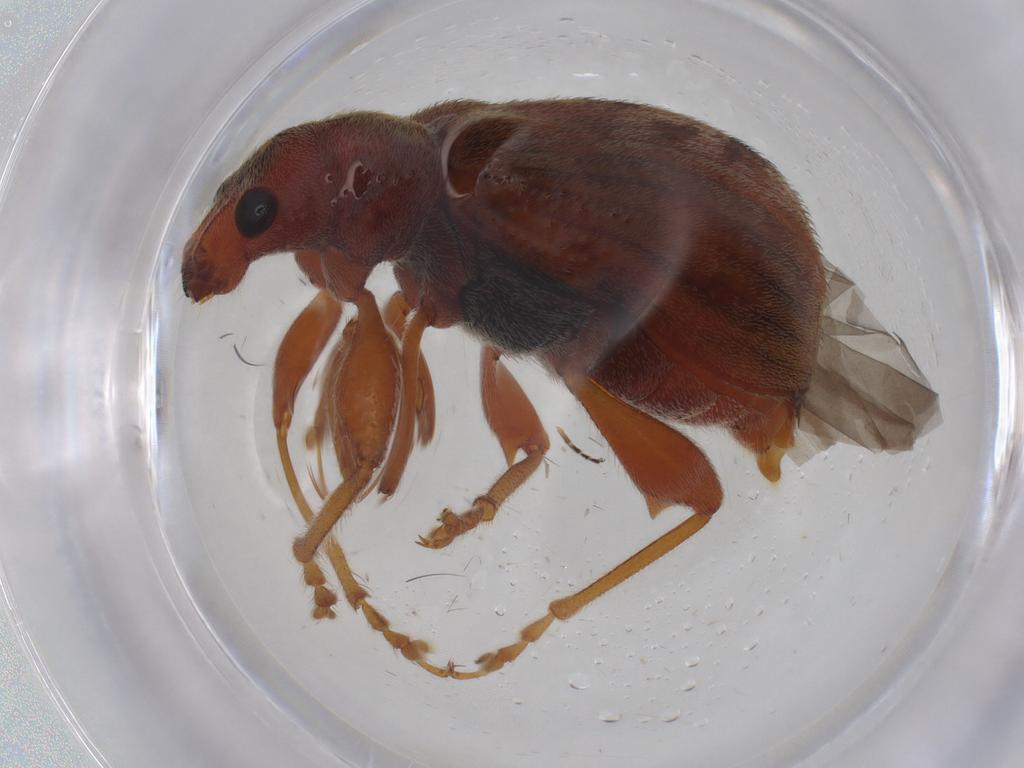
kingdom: Animalia
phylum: Arthropoda
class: Insecta
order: Coleoptera
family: Curculionidae
